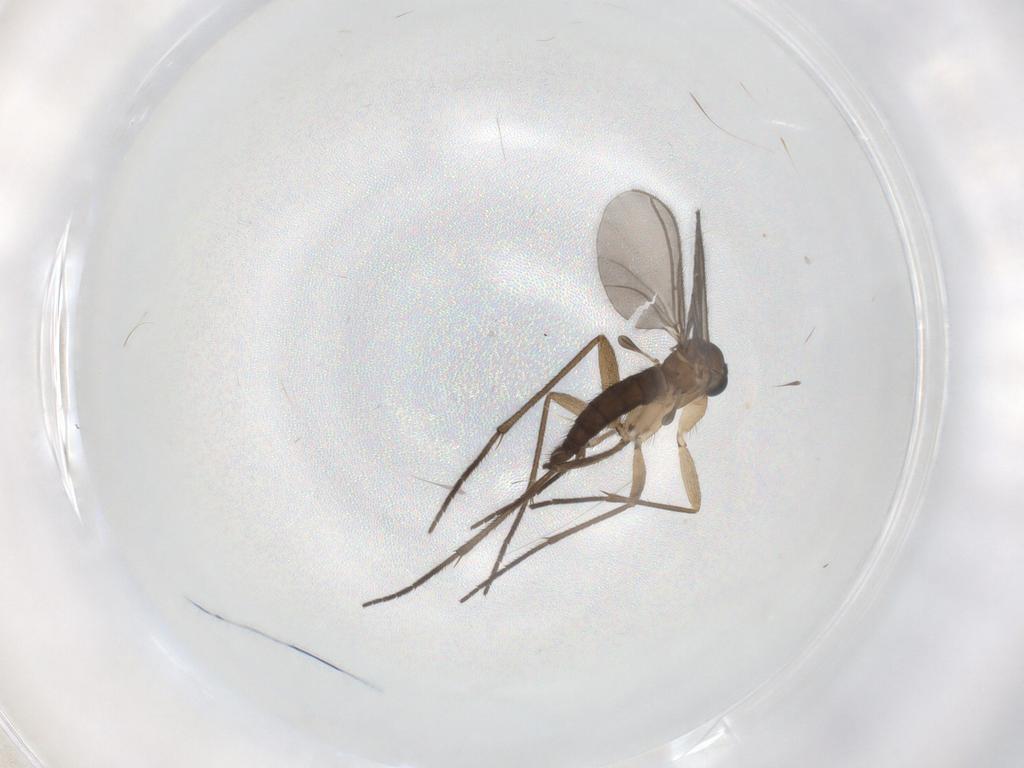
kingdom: Animalia
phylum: Arthropoda
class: Insecta
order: Diptera
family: Sciaridae
